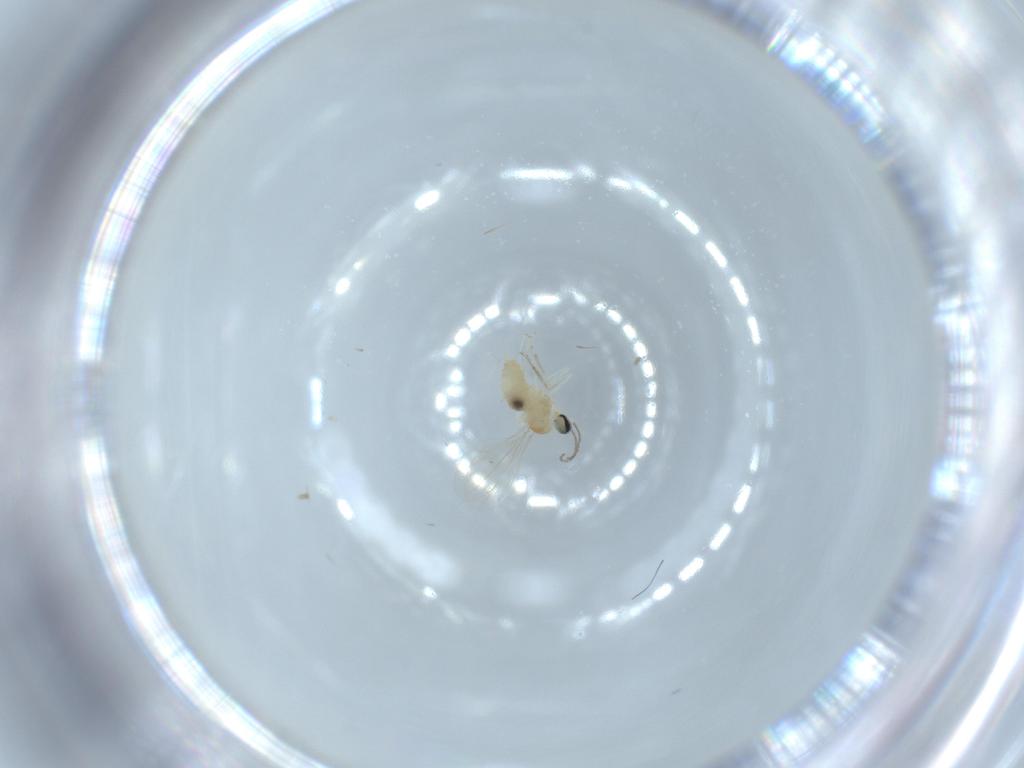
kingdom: Animalia
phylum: Arthropoda
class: Insecta
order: Diptera
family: Cecidomyiidae
